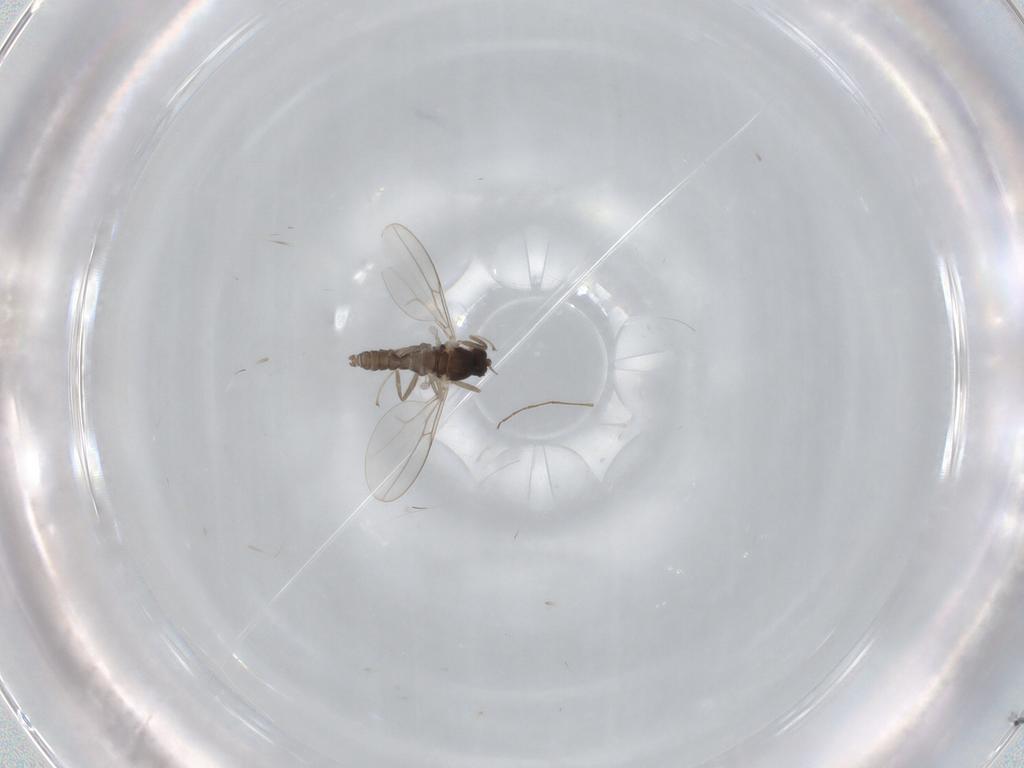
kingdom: Animalia
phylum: Arthropoda
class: Insecta
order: Diptera
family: Cecidomyiidae
